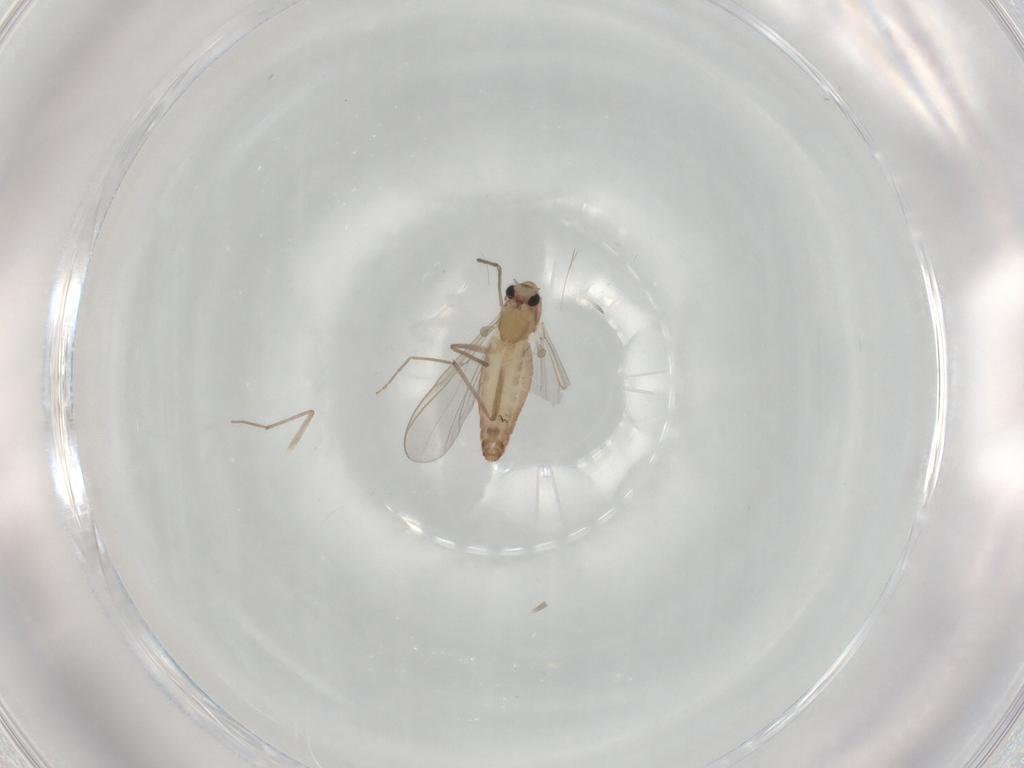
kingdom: Animalia
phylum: Arthropoda
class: Insecta
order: Diptera
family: Chironomidae
